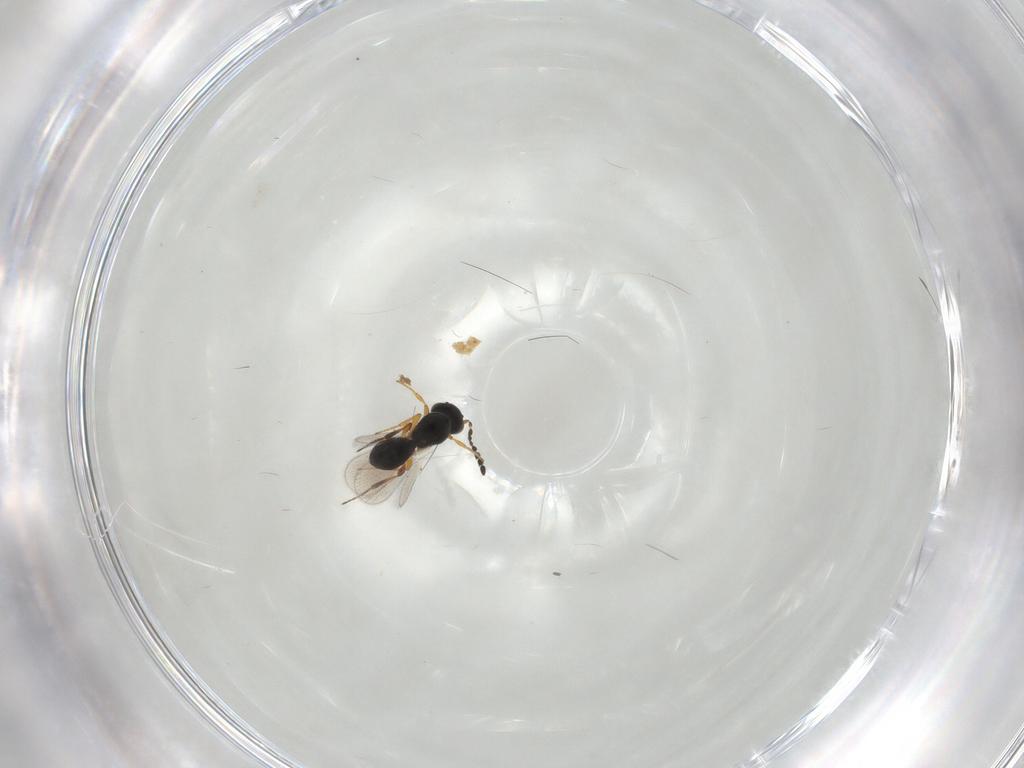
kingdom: Animalia
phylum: Arthropoda
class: Insecta
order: Hymenoptera
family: Platygastridae
